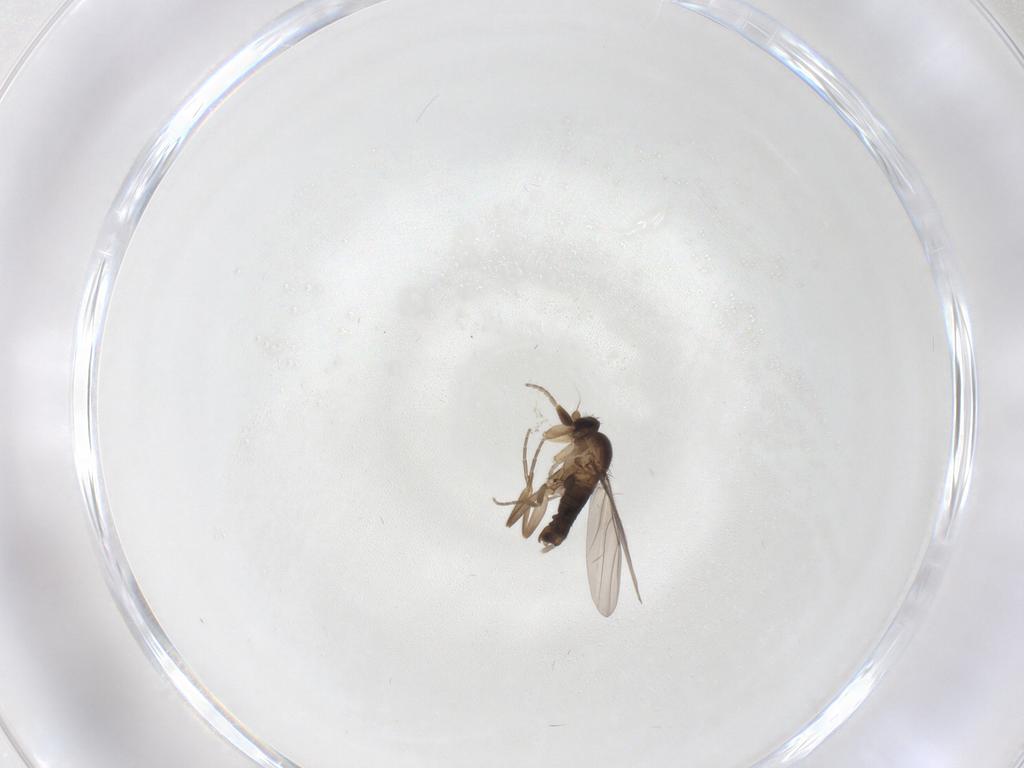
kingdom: Animalia
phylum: Arthropoda
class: Insecta
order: Diptera
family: Phoridae
